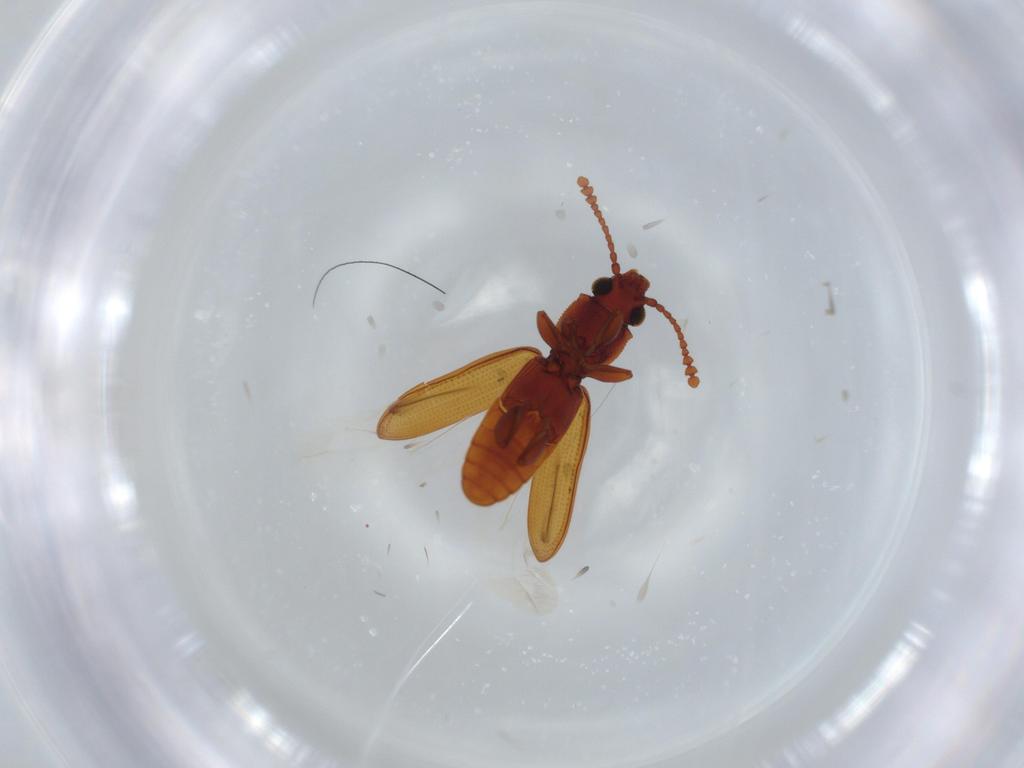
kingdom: Animalia
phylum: Arthropoda
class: Insecta
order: Coleoptera
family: Silvanidae
